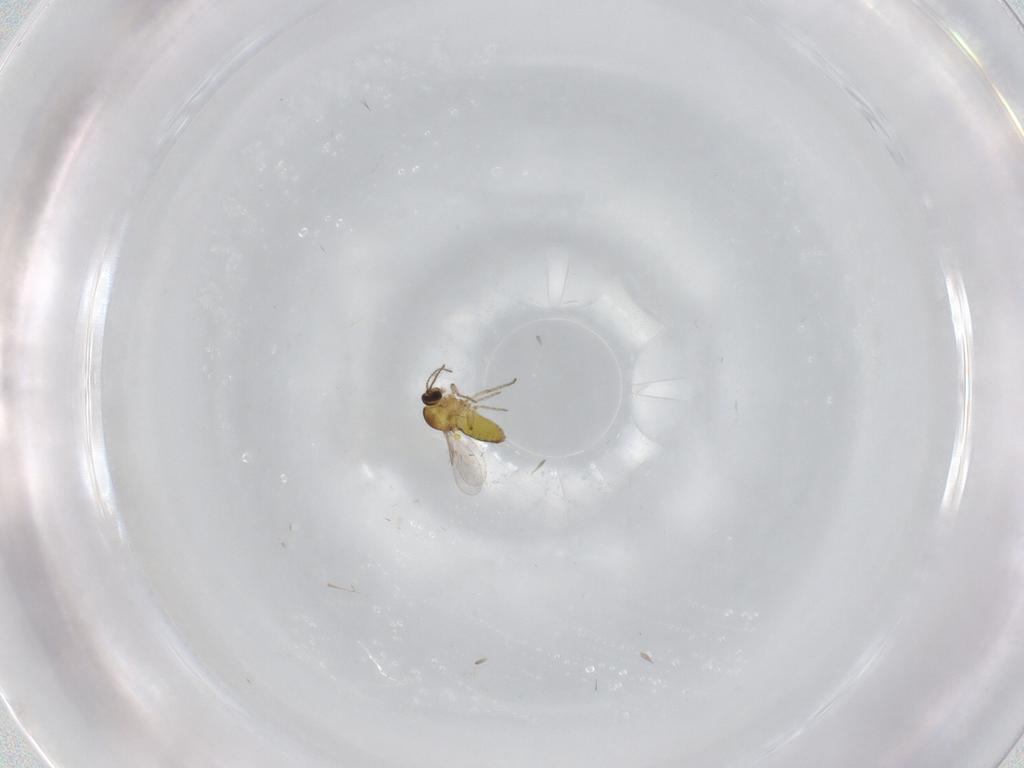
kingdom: Animalia
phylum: Arthropoda
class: Insecta
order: Diptera
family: Ceratopogonidae
